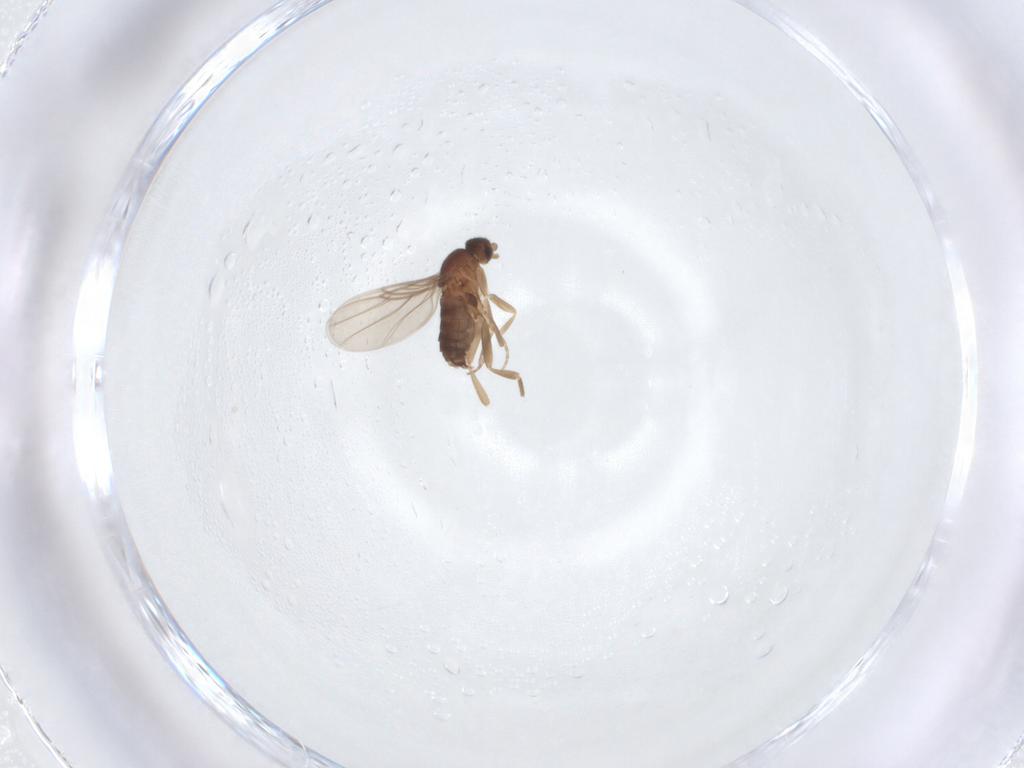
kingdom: Animalia
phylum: Arthropoda
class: Insecta
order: Diptera
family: Phoridae
